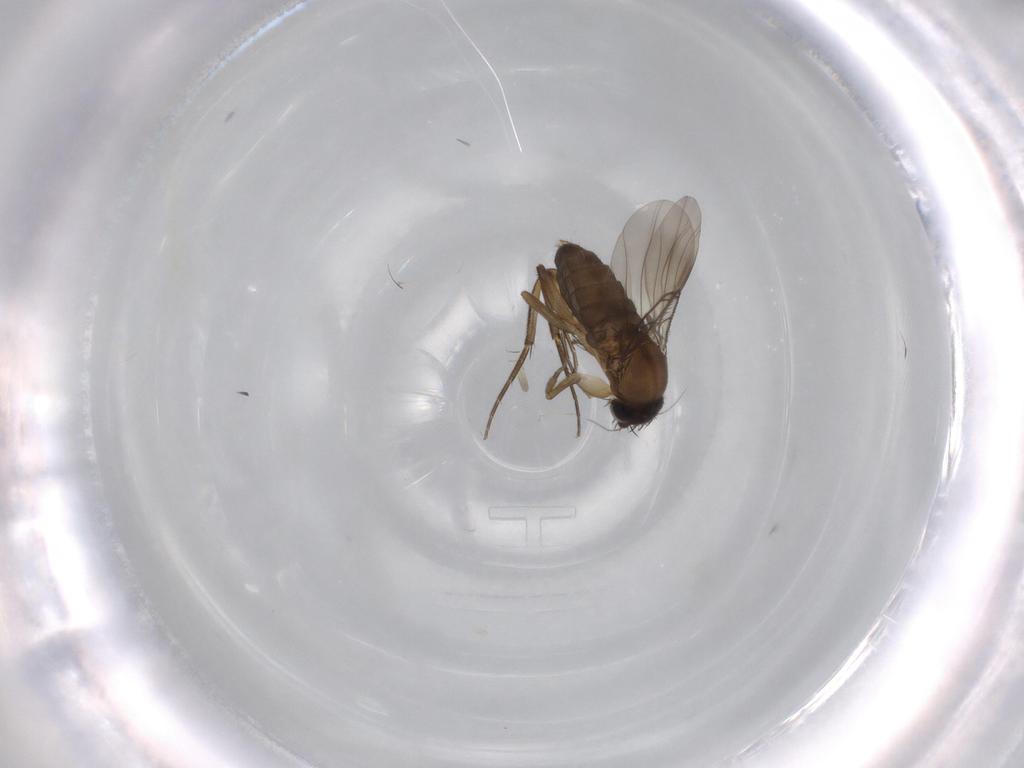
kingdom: Animalia
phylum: Arthropoda
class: Insecta
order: Diptera
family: Phoridae
